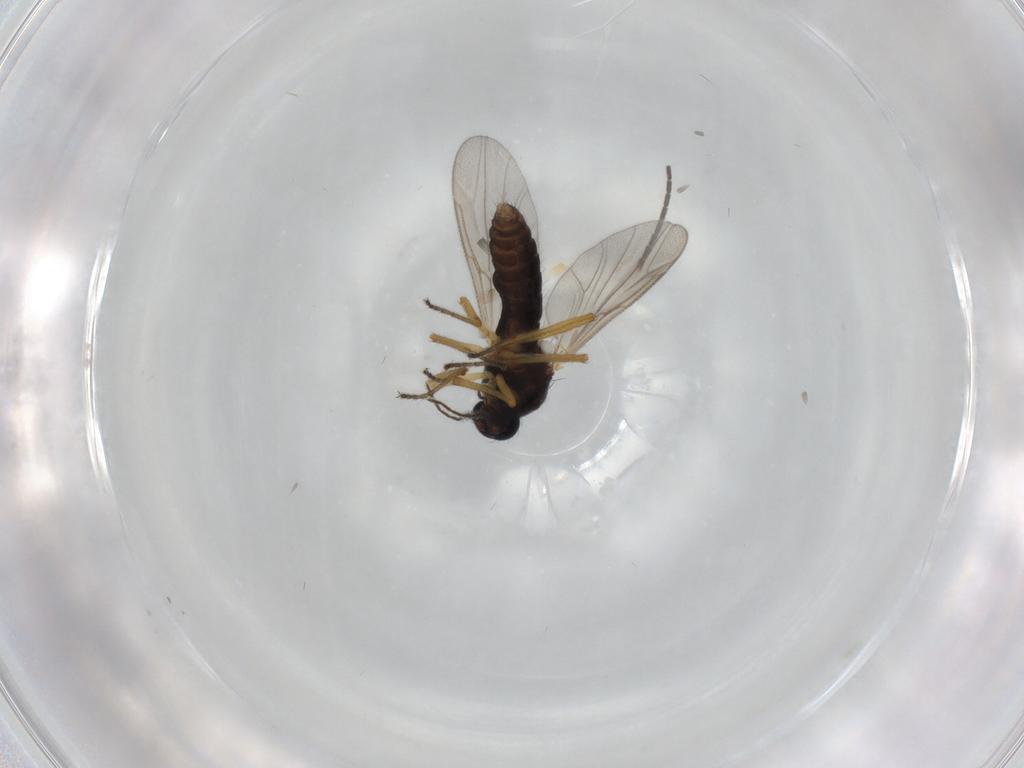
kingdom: Animalia
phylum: Arthropoda
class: Insecta
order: Diptera
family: Ceratopogonidae
